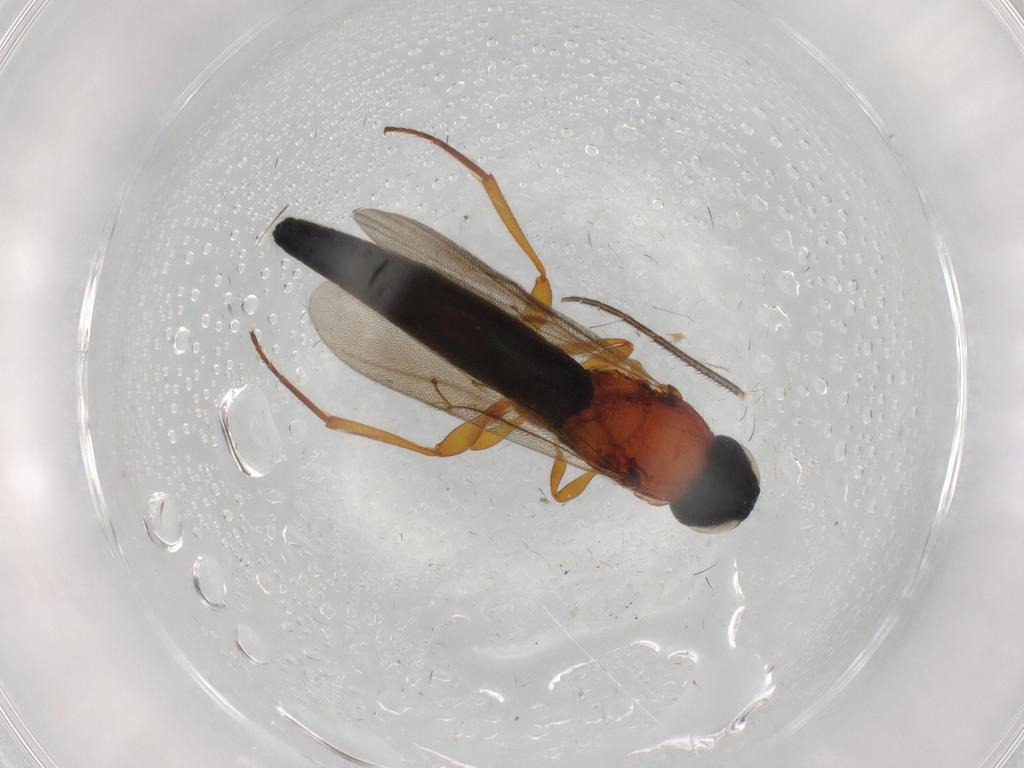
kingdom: Animalia
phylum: Arthropoda
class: Insecta
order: Hymenoptera
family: Formicidae
